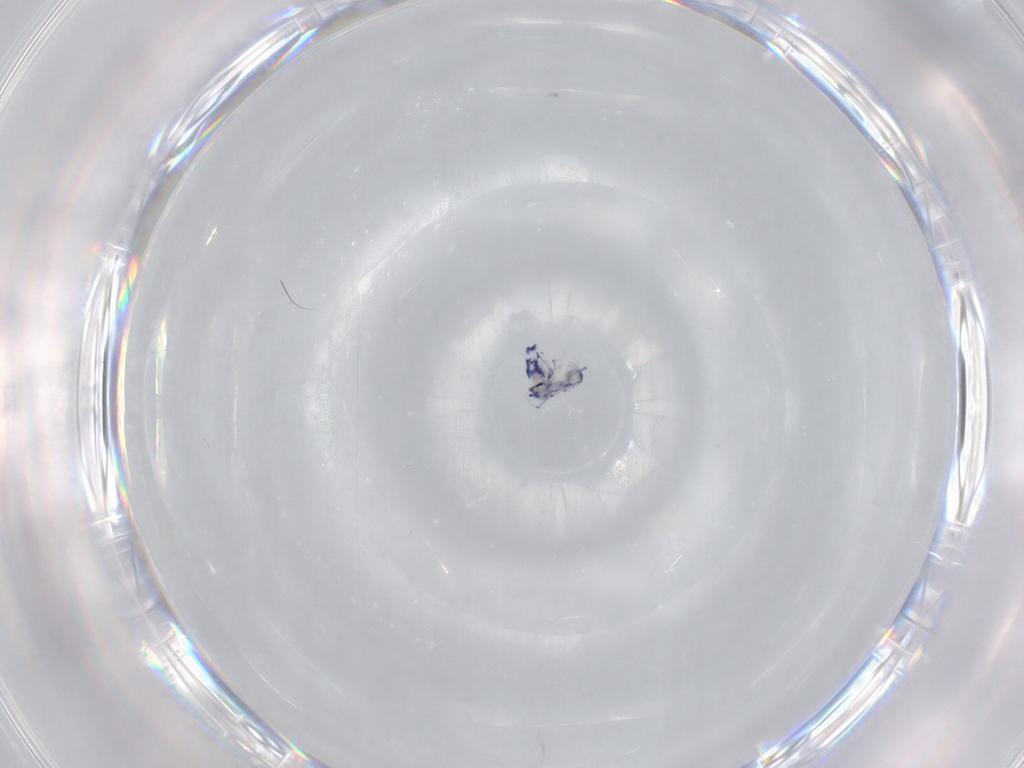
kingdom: Animalia
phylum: Arthropoda
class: Collembola
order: Entomobryomorpha
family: Entomobryidae
